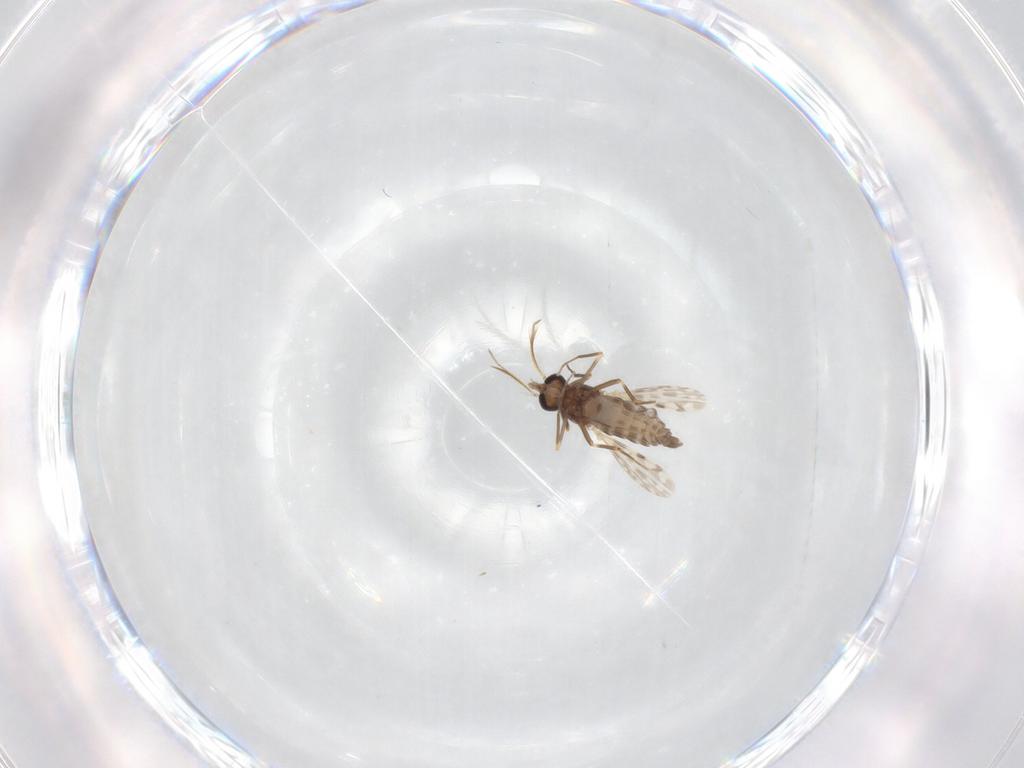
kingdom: Animalia
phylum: Arthropoda
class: Insecta
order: Diptera
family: Ceratopogonidae
